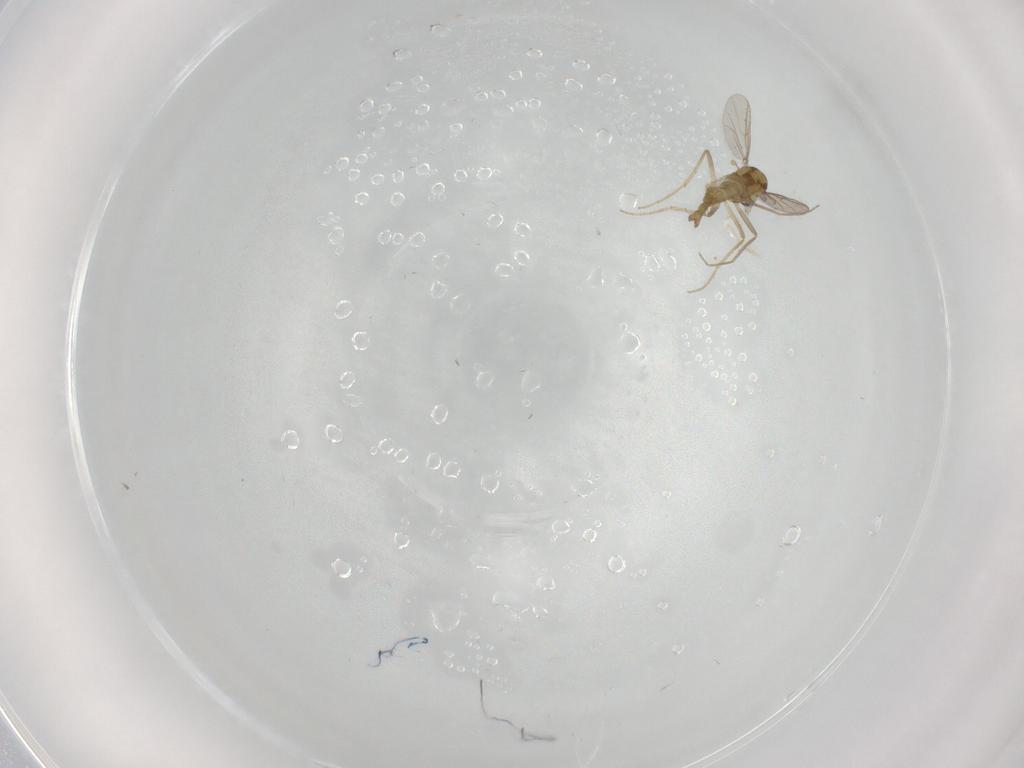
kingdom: Animalia
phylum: Arthropoda
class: Insecta
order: Diptera
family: Chironomidae
